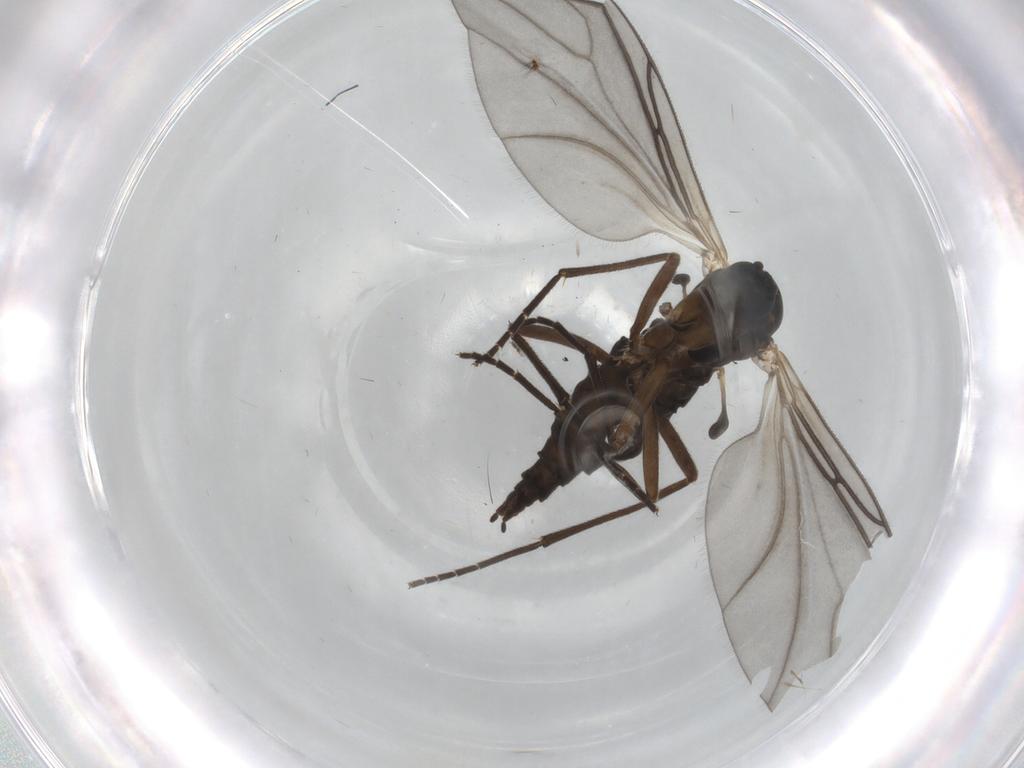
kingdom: Animalia
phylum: Arthropoda
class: Insecta
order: Diptera
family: Sciaridae
